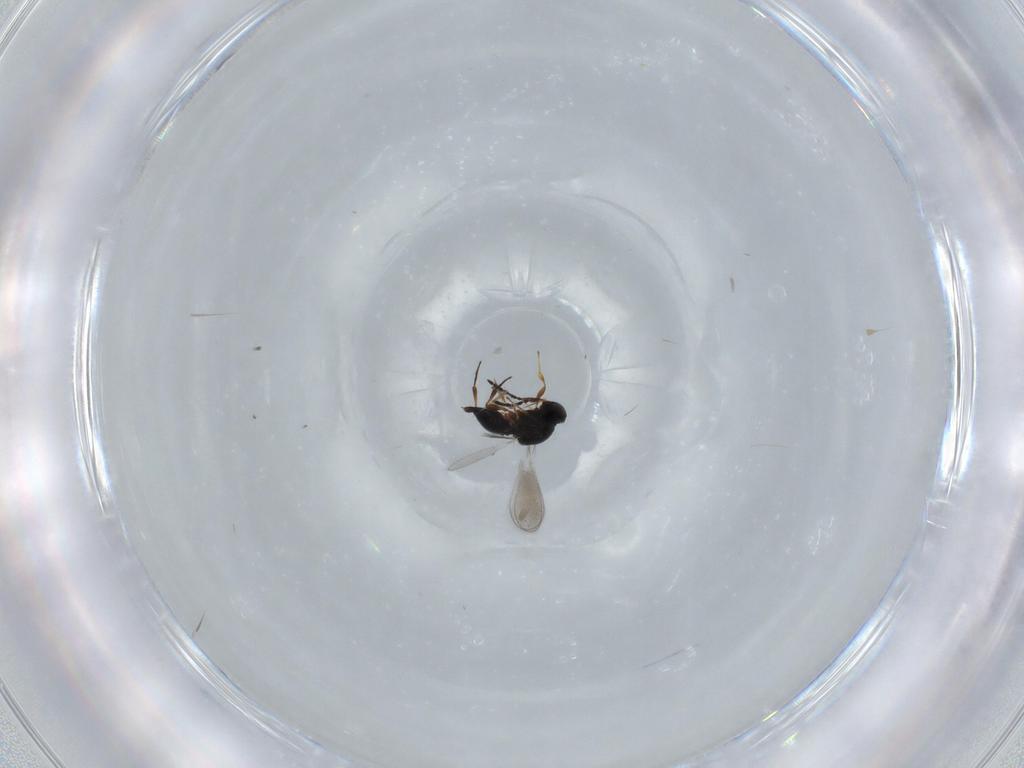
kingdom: Animalia
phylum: Arthropoda
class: Insecta
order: Hymenoptera
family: Platygastridae
